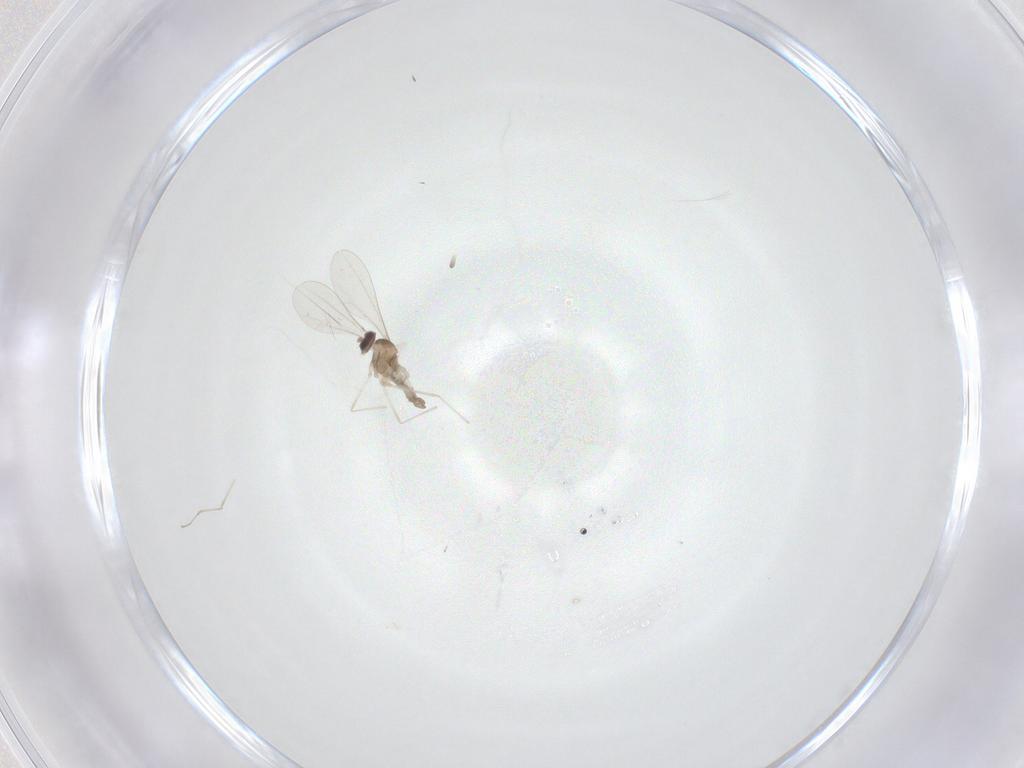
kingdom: Animalia
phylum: Arthropoda
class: Insecta
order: Diptera
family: Cecidomyiidae
